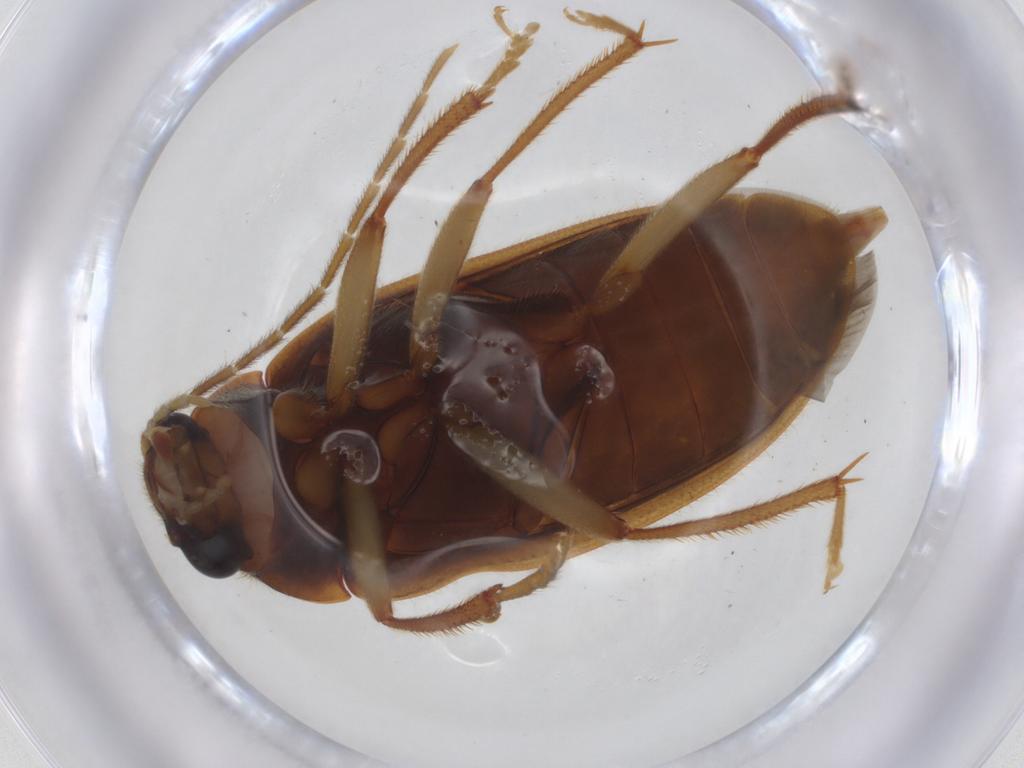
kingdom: Animalia
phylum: Arthropoda
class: Insecta
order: Coleoptera
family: Ptilodactylidae
